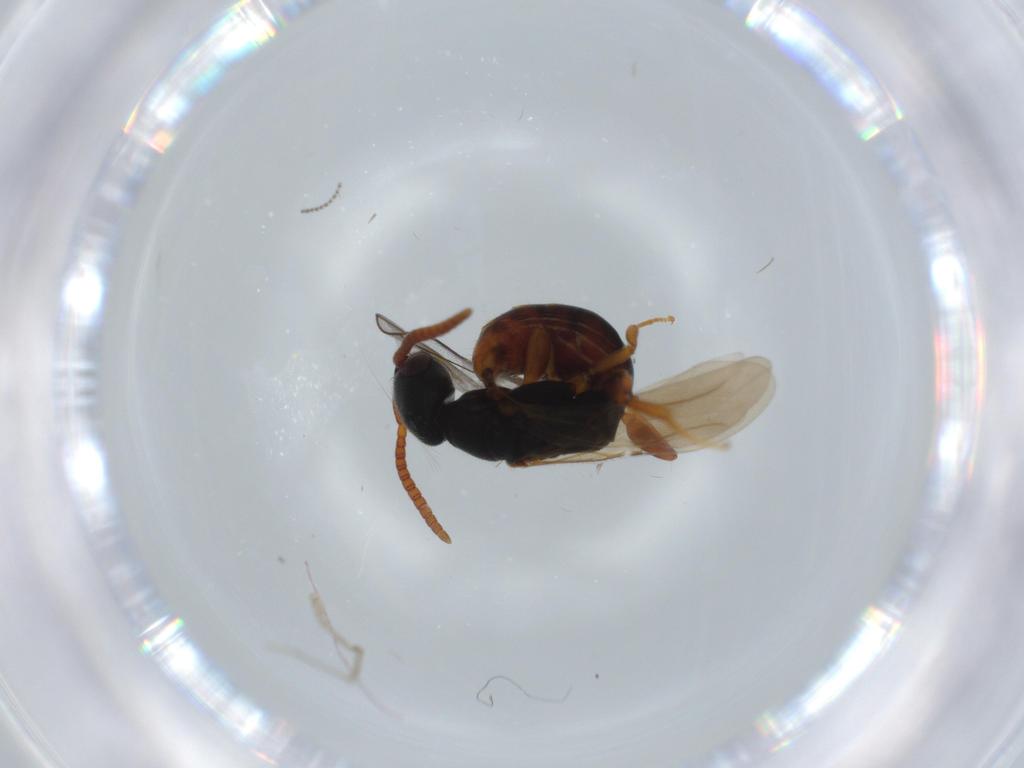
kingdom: Animalia
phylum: Arthropoda
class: Insecta
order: Hymenoptera
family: Bethylidae
